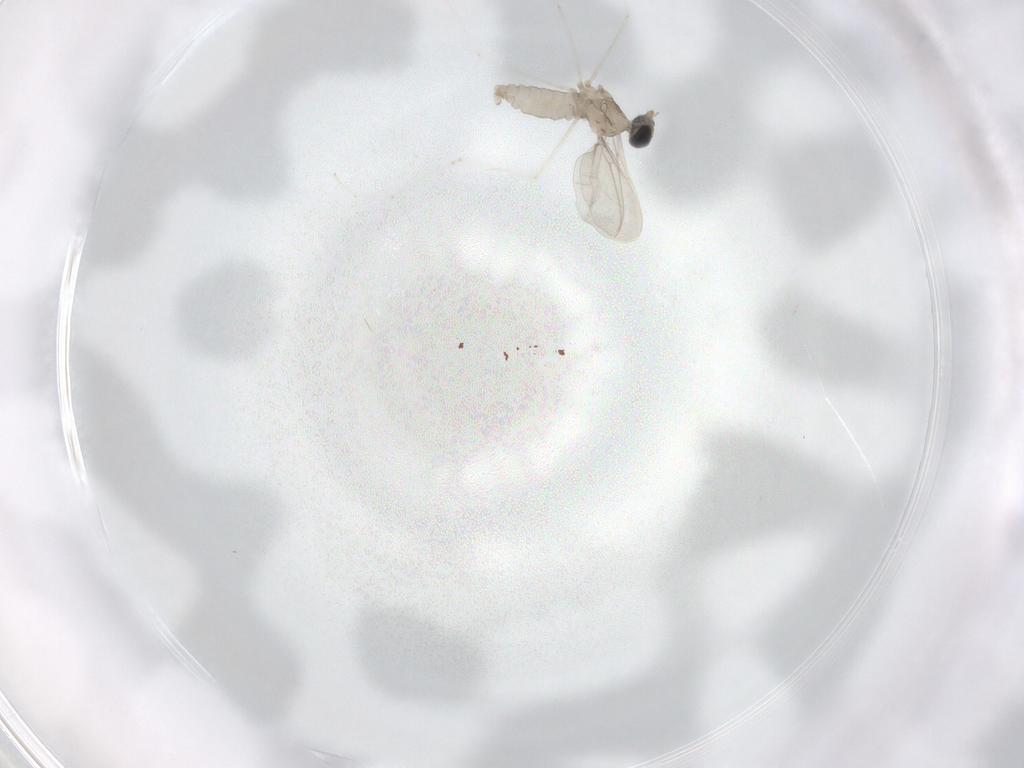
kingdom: Animalia
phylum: Arthropoda
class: Insecta
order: Diptera
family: Cecidomyiidae
